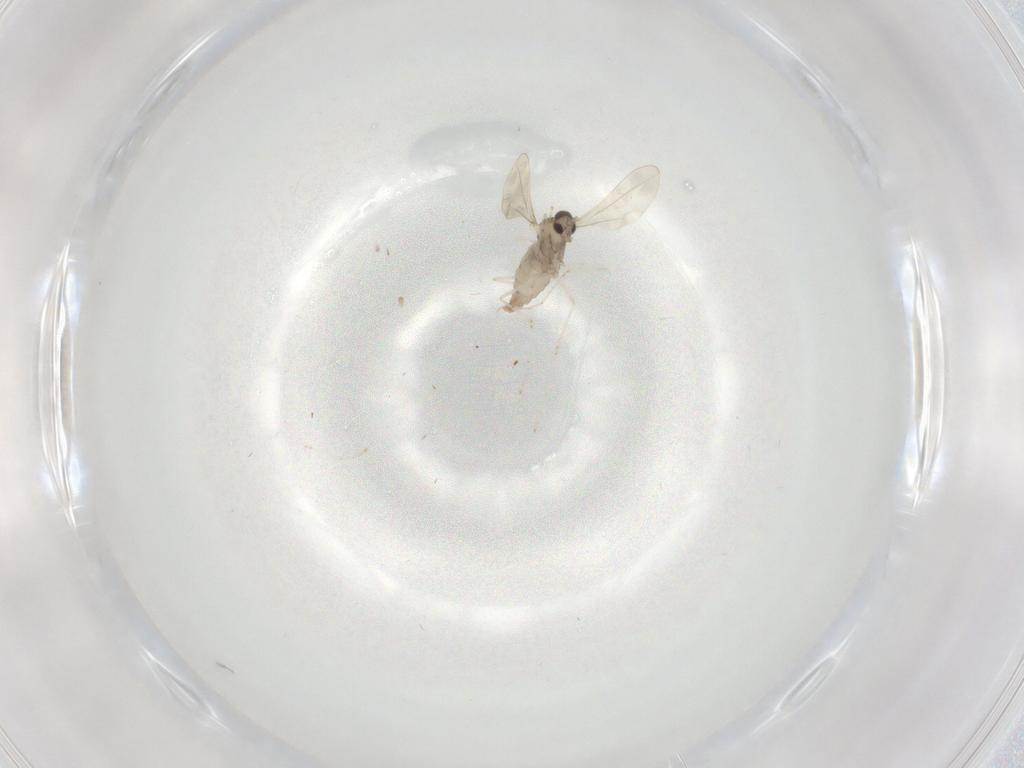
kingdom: Animalia
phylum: Arthropoda
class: Insecta
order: Diptera
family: Cecidomyiidae
